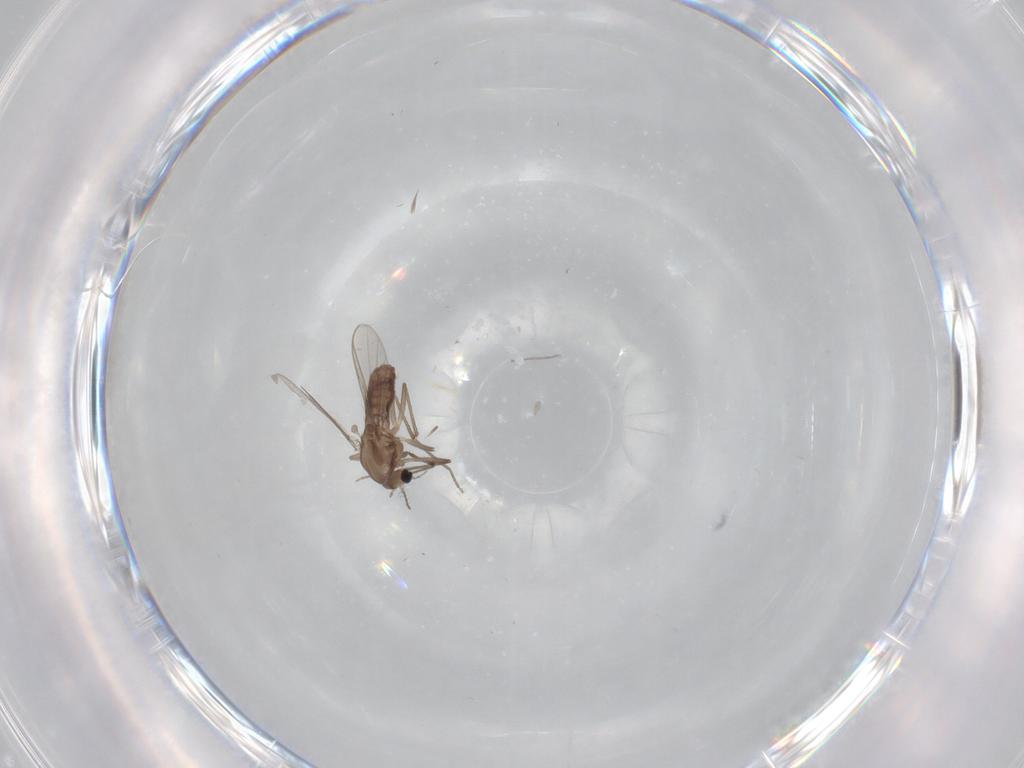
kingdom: Animalia
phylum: Arthropoda
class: Insecta
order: Diptera
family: Chironomidae
